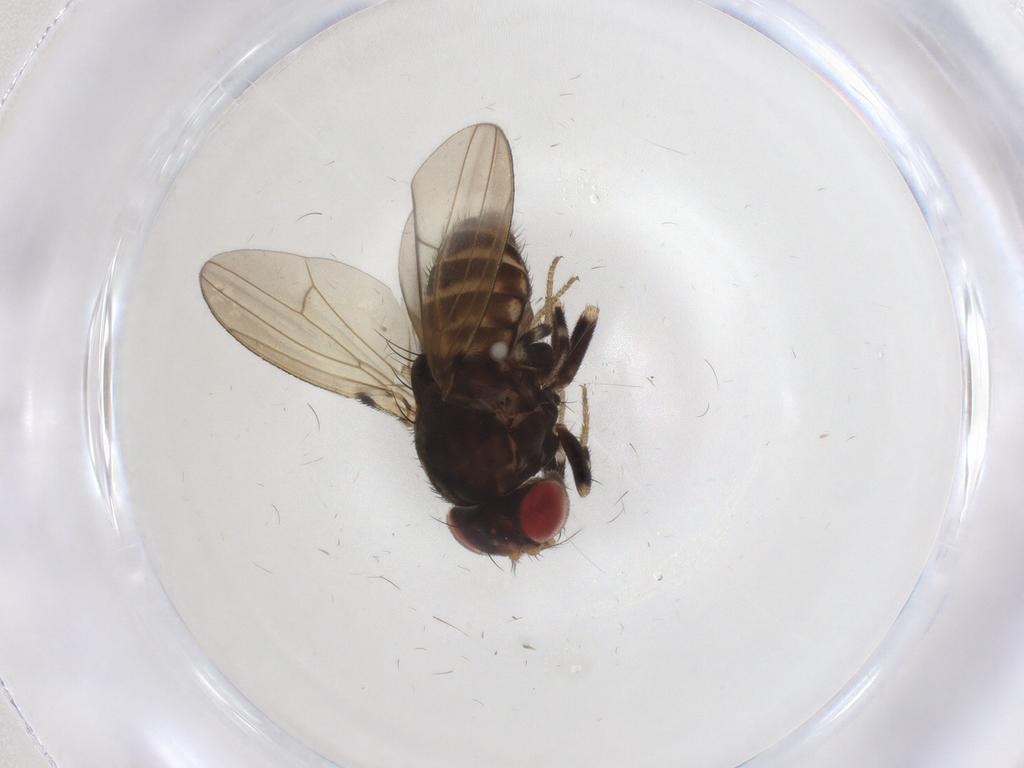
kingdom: Animalia
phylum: Arthropoda
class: Insecta
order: Diptera
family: Drosophilidae
